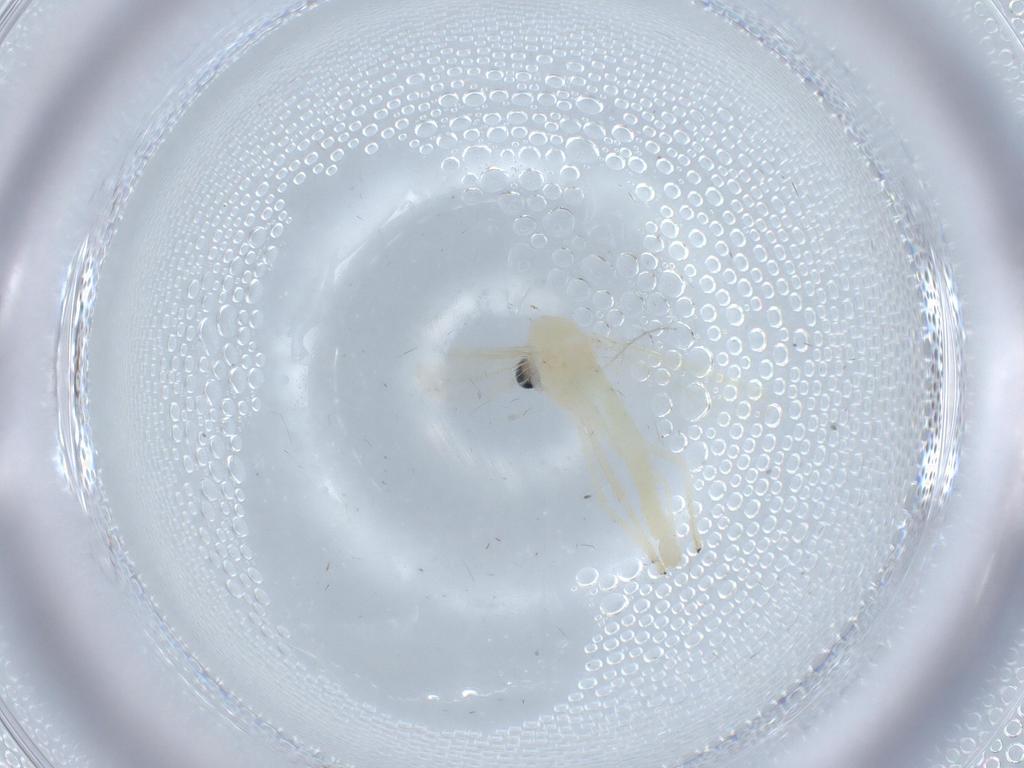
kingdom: Animalia
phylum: Arthropoda
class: Insecta
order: Diptera
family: Chironomidae
